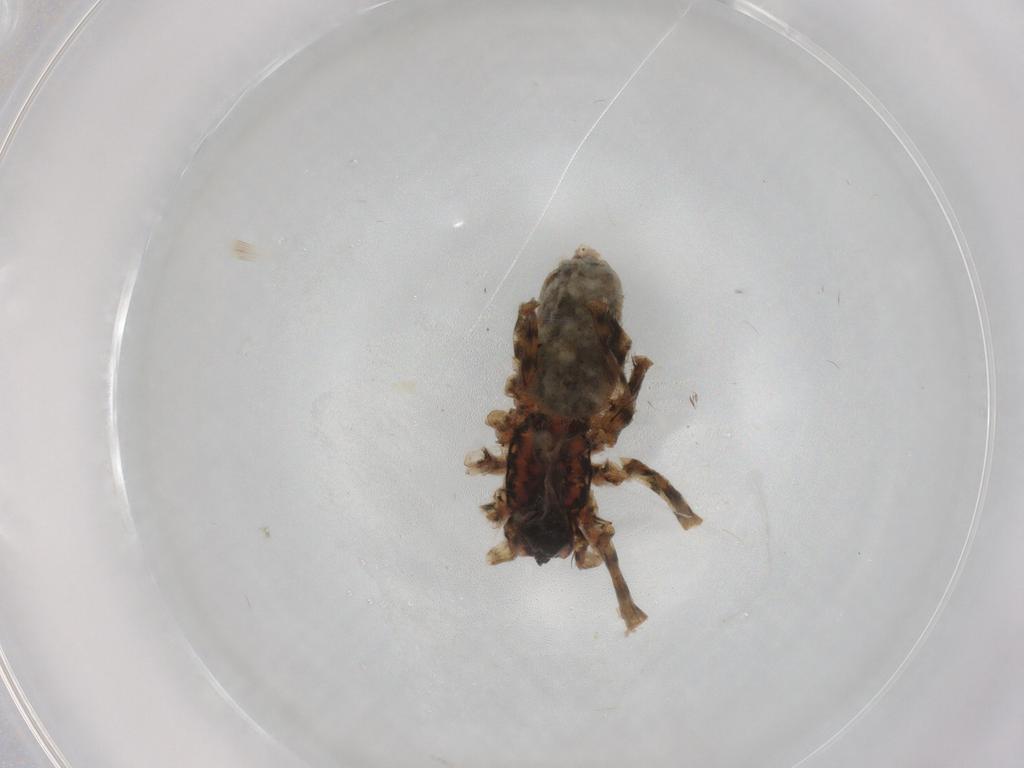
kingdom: Animalia
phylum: Arthropoda
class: Arachnida
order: Araneae
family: Lycosidae
